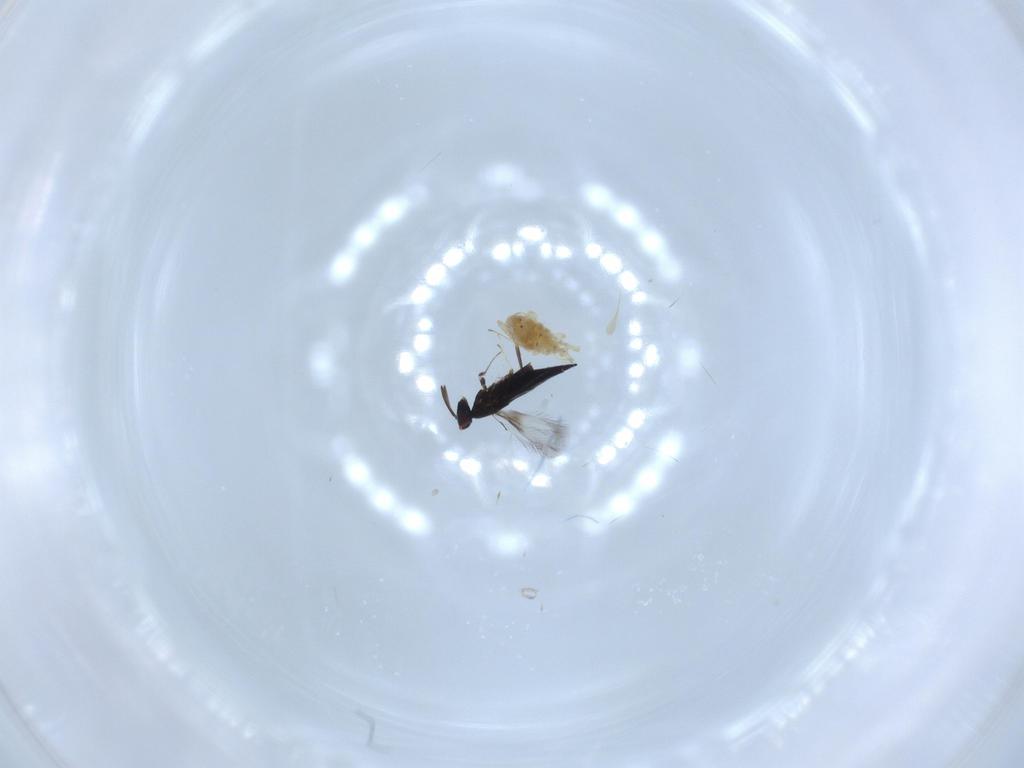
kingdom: Animalia
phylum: Arthropoda
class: Insecta
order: Hymenoptera
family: Signiphoridae
